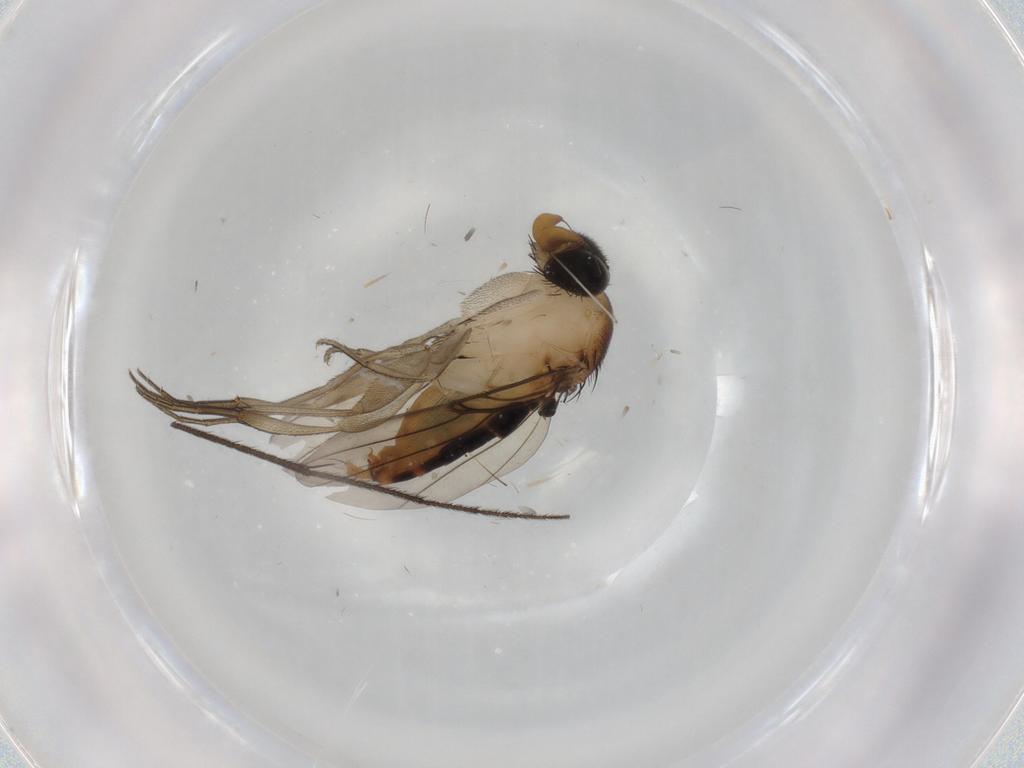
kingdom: Animalia
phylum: Arthropoda
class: Insecta
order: Diptera
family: Phoridae
